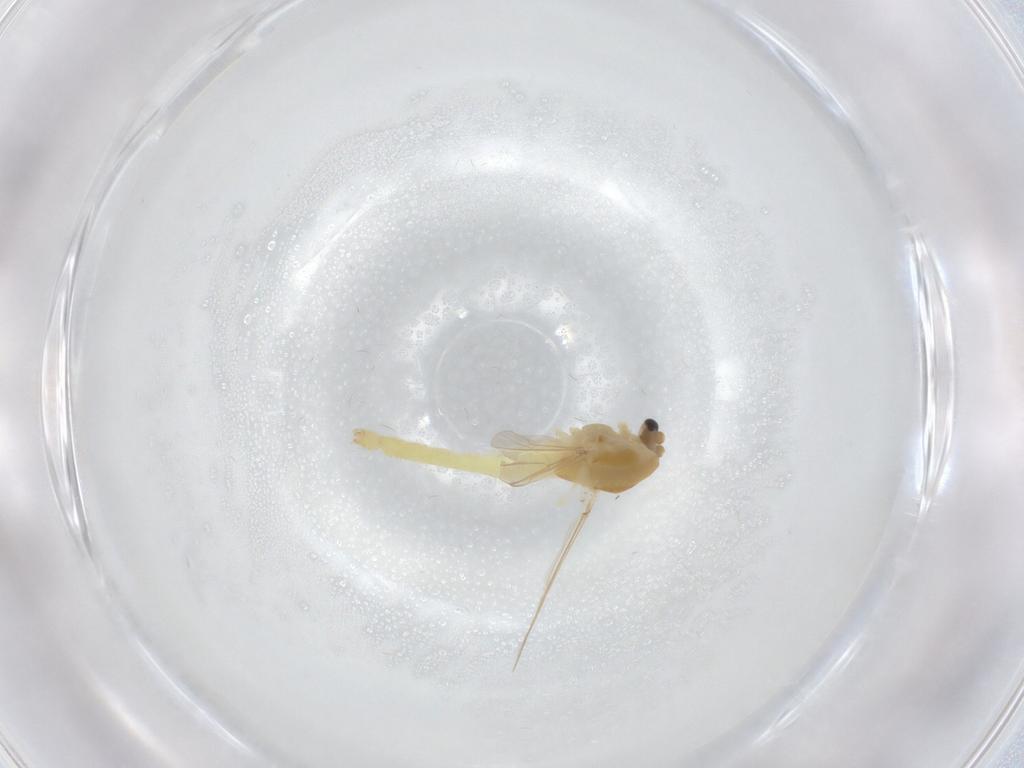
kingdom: Animalia
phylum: Arthropoda
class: Insecta
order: Diptera
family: Chironomidae
